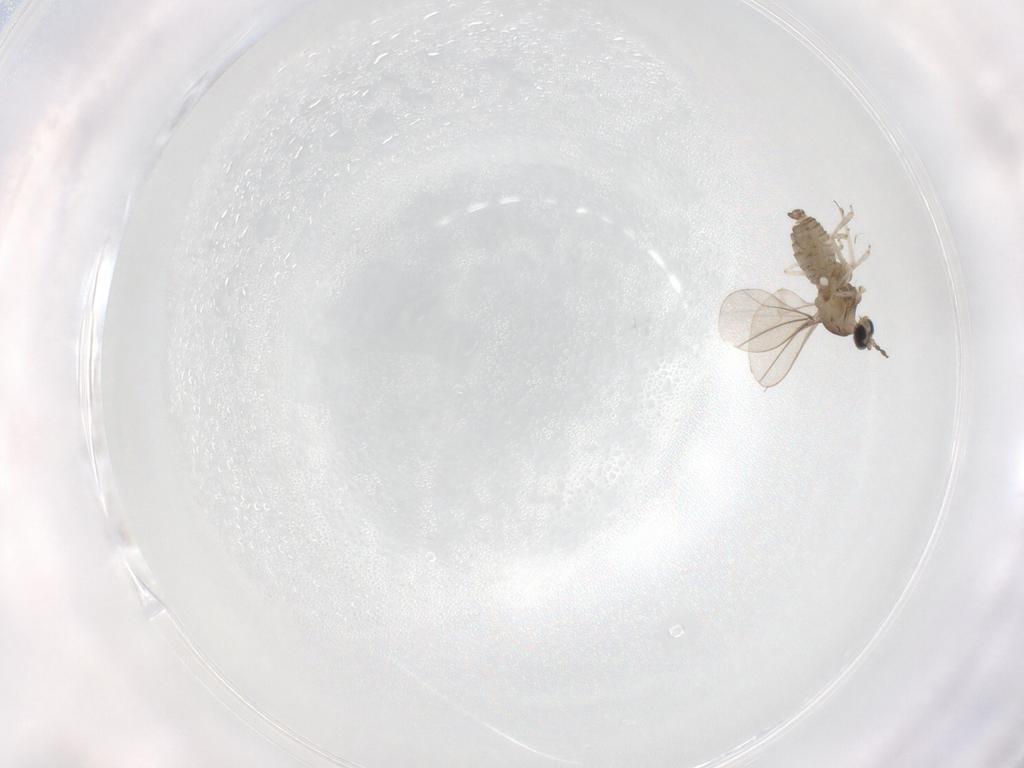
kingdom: Animalia
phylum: Arthropoda
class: Insecta
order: Diptera
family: Cecidomyiidae
